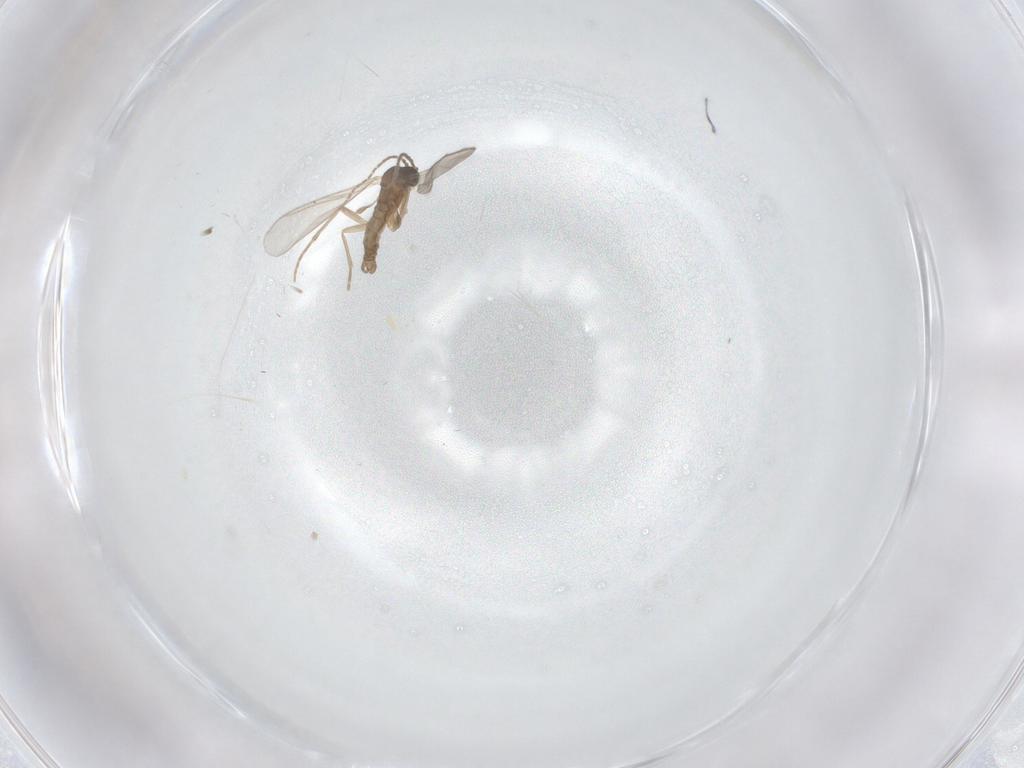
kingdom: Animalia
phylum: Arthropoda
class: Insecta
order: Diptera
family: Sciaridae
